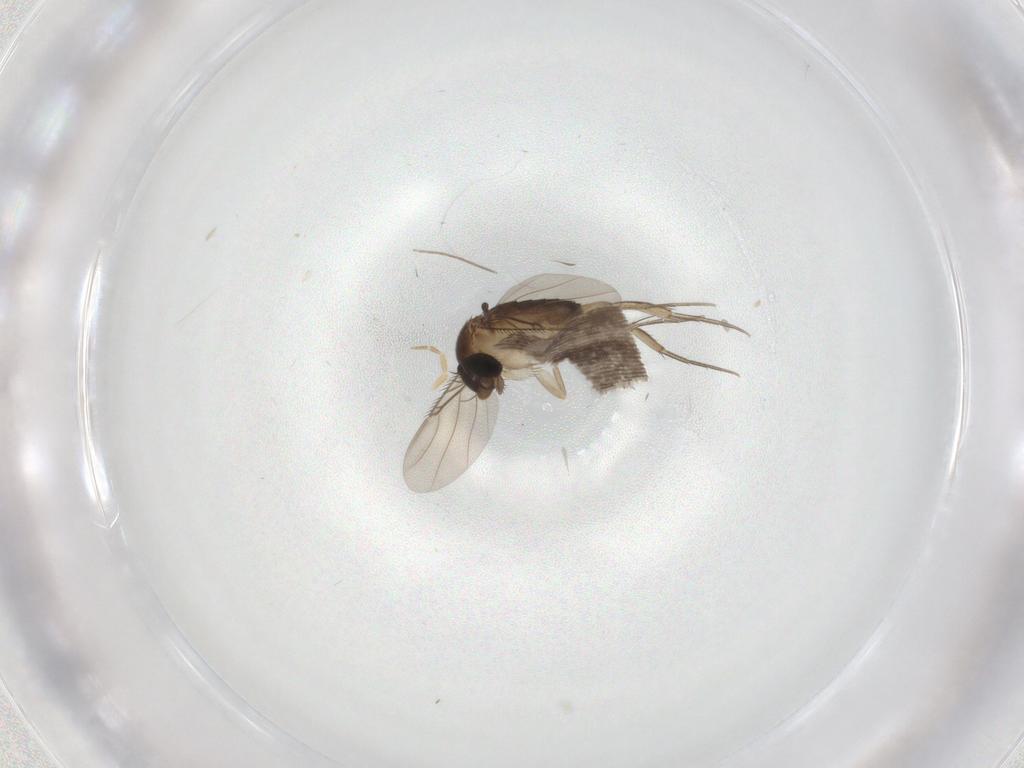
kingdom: Animalia
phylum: Arthropoda
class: Insecta
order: Diptera
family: Phoridae
